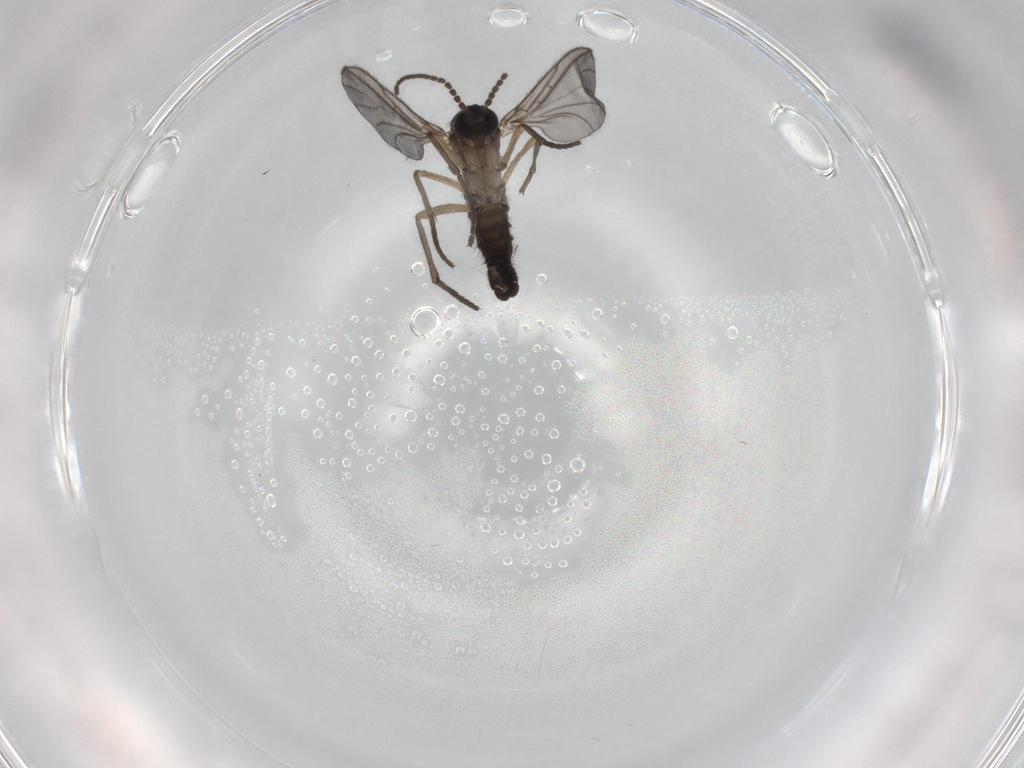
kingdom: Animalia
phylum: Arthropoda
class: Insecta
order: Diptera
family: Sciaridae
